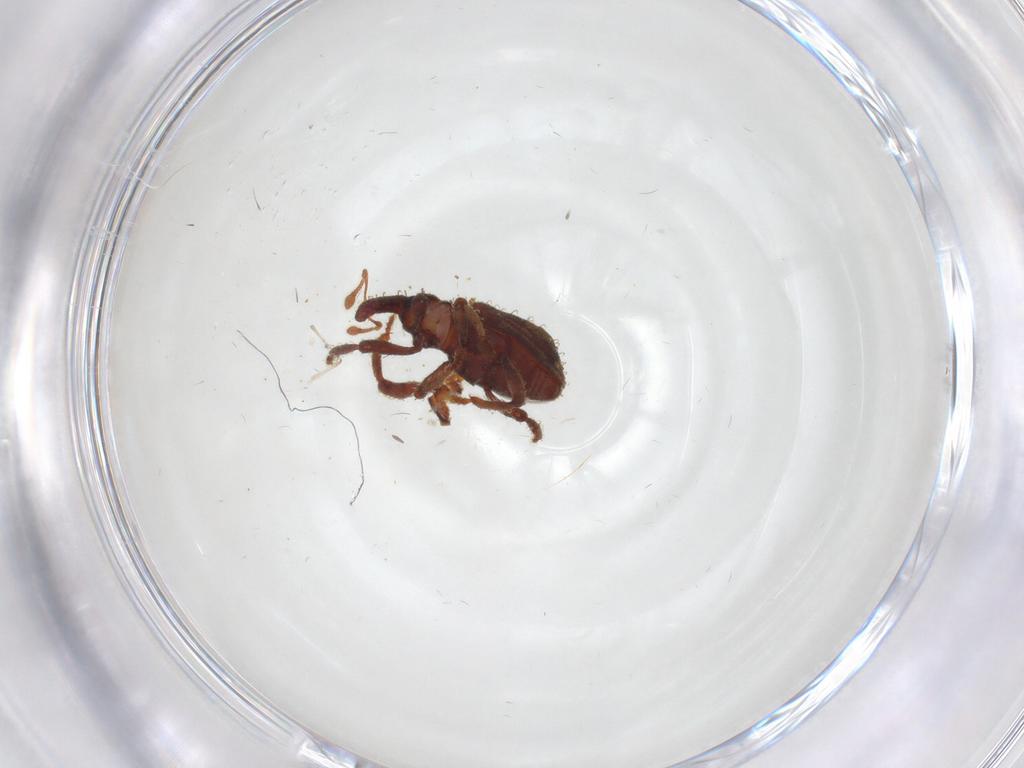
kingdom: Animalia
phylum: Arthropoda
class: Insecta
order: Coleoptera
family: Curculionidae
